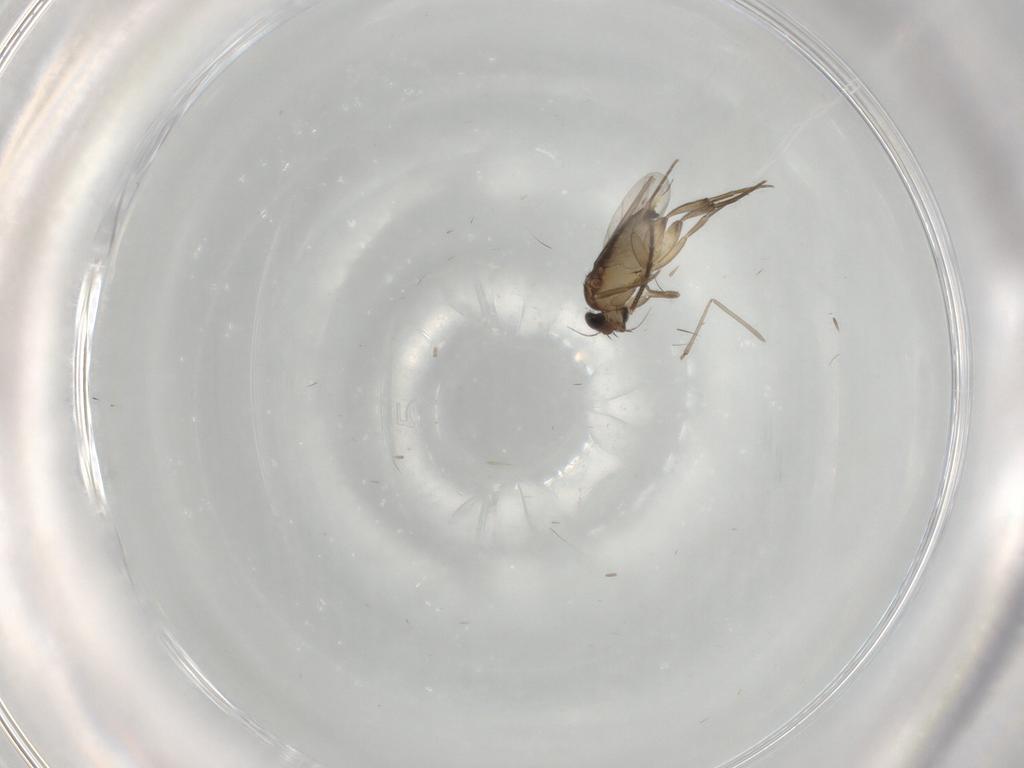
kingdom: Animalia
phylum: Arthropoda
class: Insecta
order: Diptera
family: Phoridae
